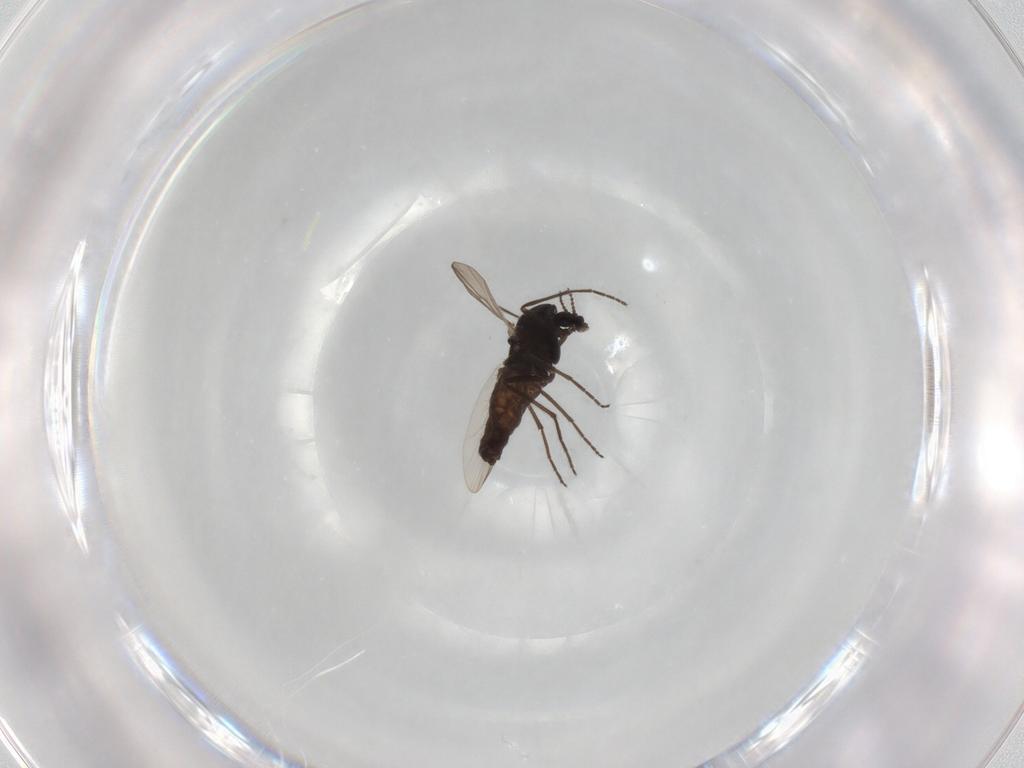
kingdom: Animalia
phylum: Arthropoda
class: Insecta
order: Diptera
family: Chironomidae
